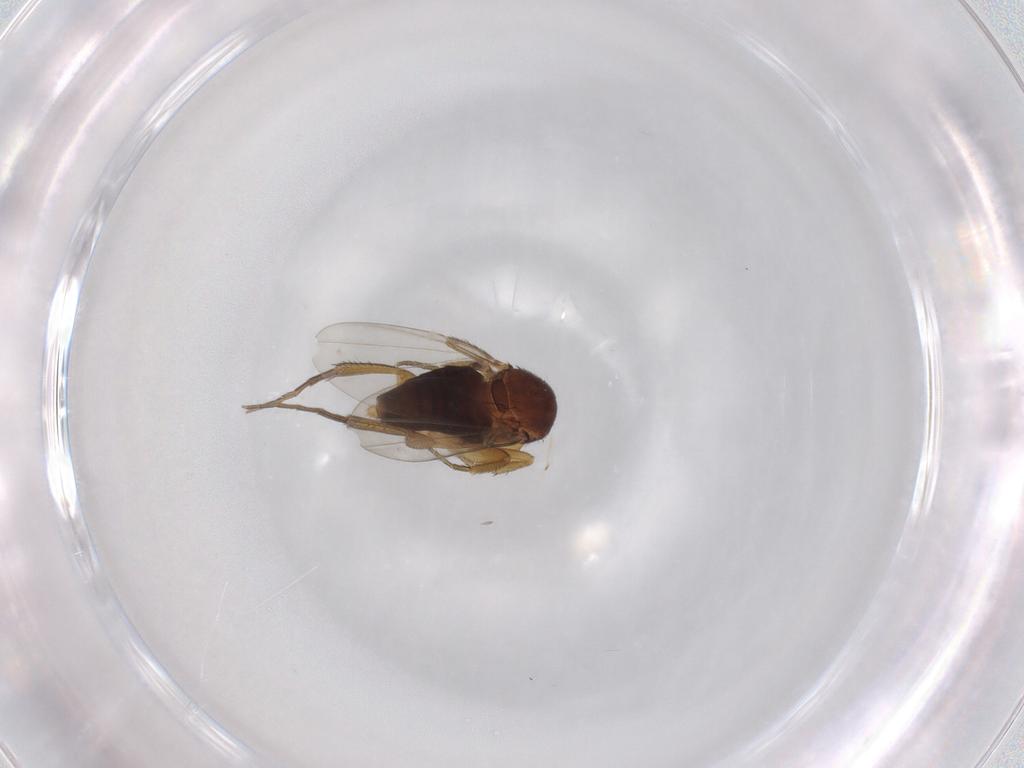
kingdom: Animalia
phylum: Arthropoda
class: Insecta
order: Diptera
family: Phoridae
